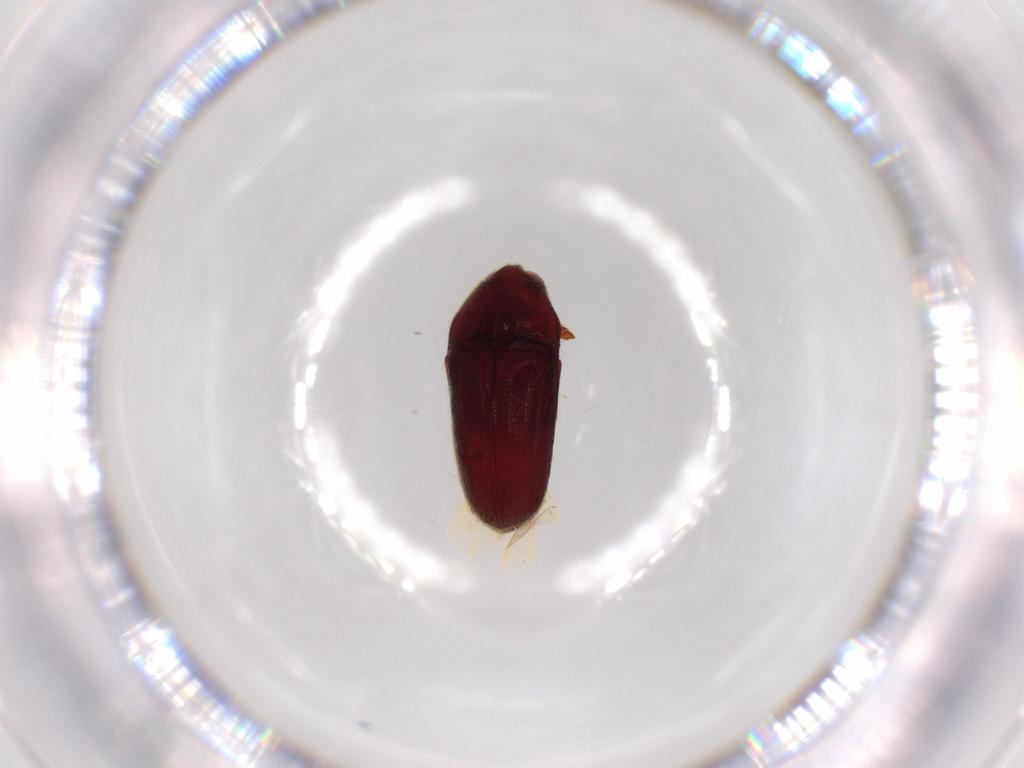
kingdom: Animalia
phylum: Arthropoda
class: Insecta
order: Coleoptera
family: Throscidae
